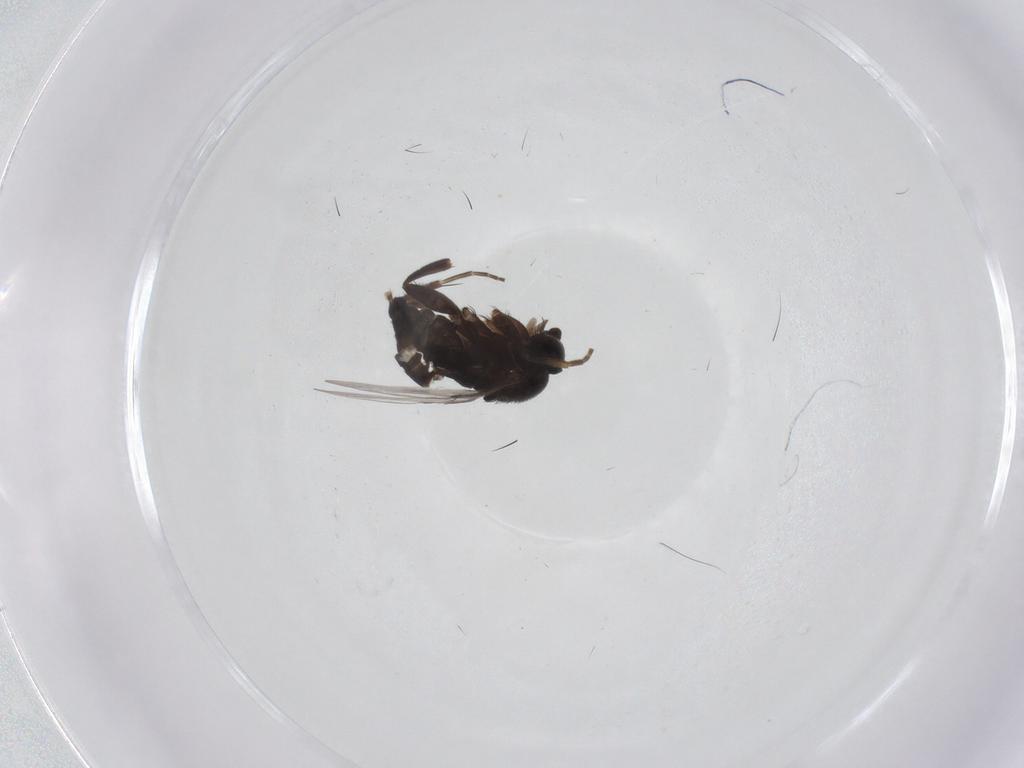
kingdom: Animalia
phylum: Arthropoda
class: Insecta
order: Diptera
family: Phoridae
